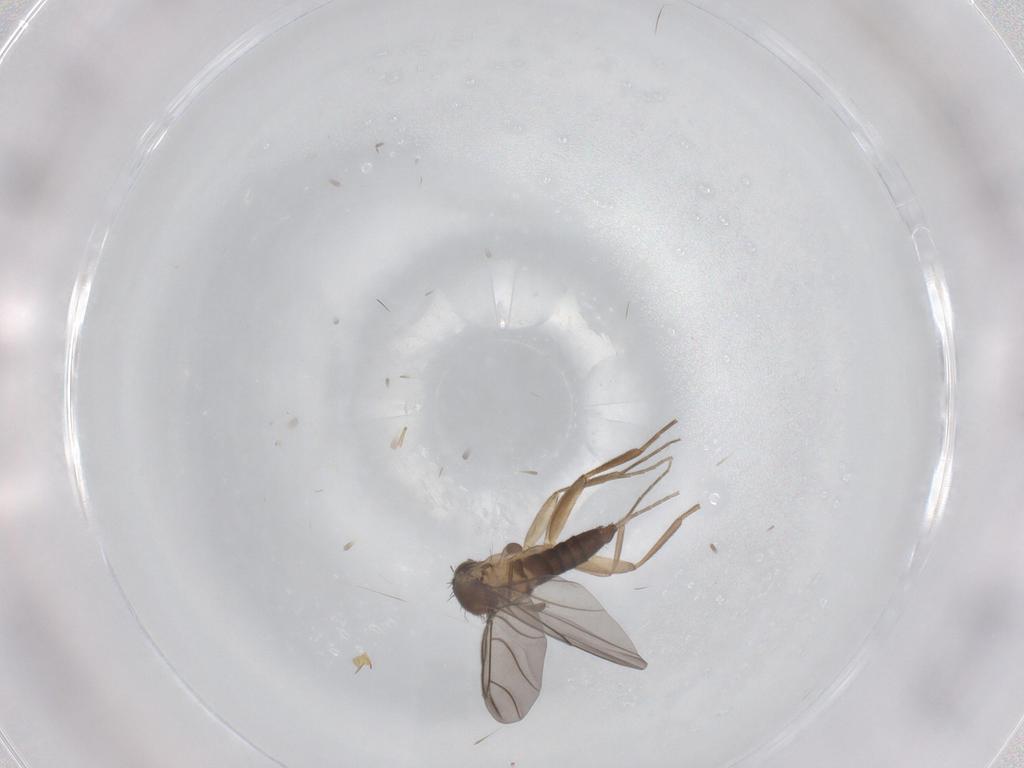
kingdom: Animalia
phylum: Arthropoda
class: Insecta
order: Diptera
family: Phoridae
